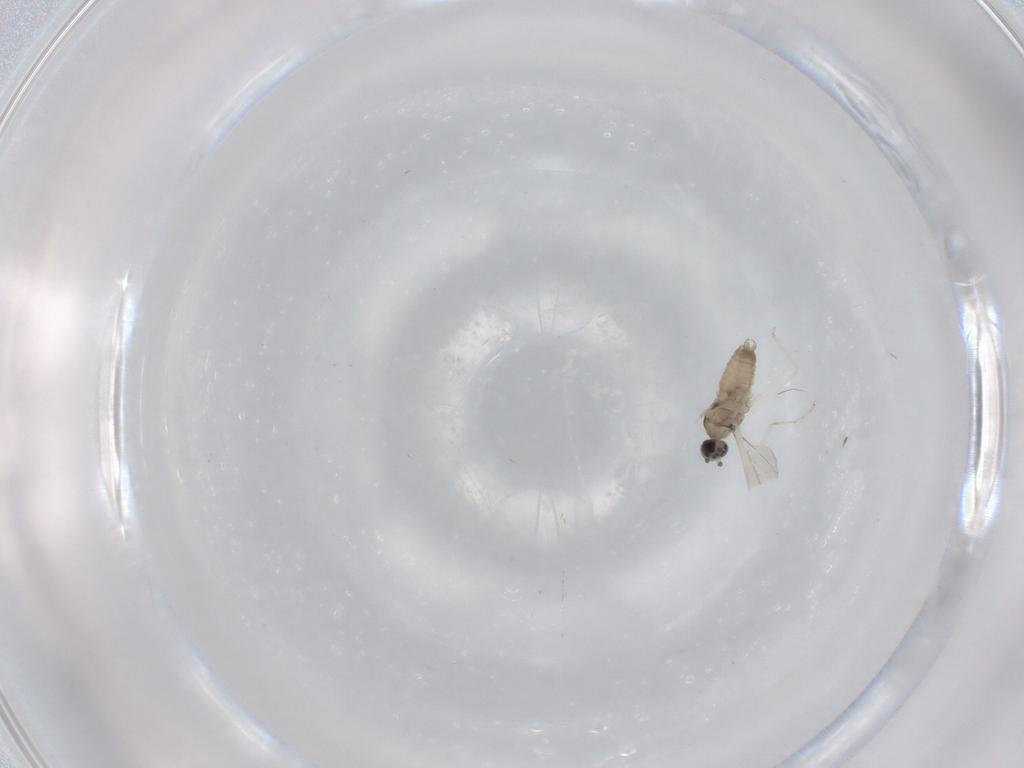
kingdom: Animalia
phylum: Arthropoda
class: Insecta
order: Diptera
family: Cecidomyiidae
